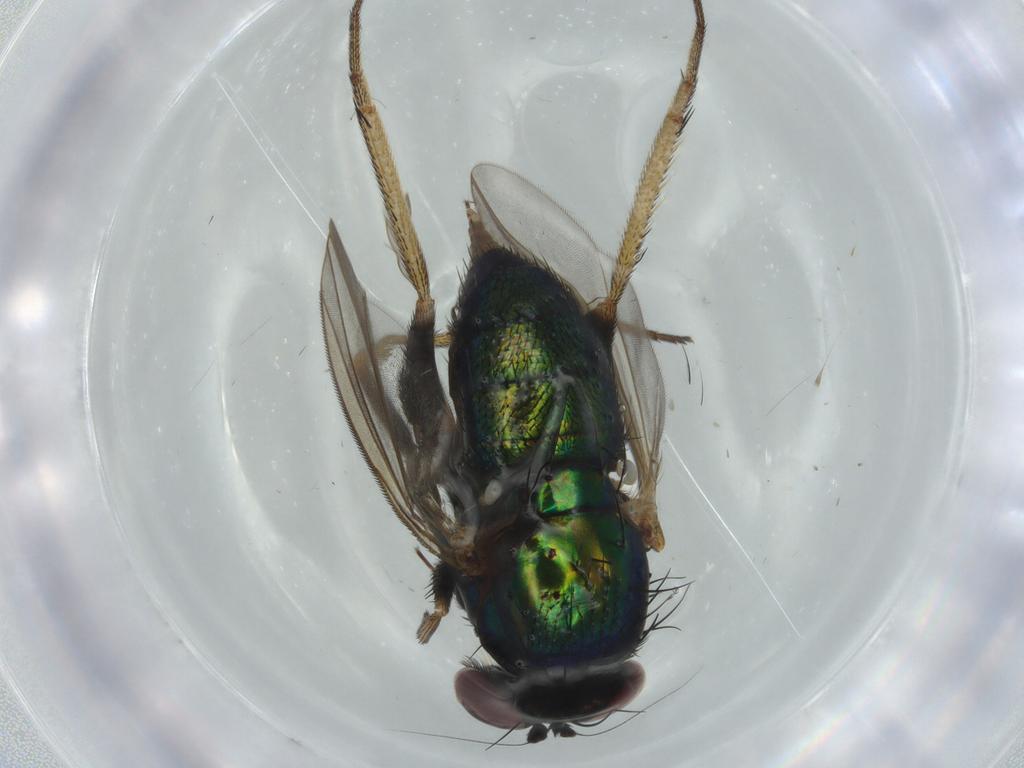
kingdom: Animalia
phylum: Arthropoda
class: Insecta
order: Diptera
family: Dolichopodidae
